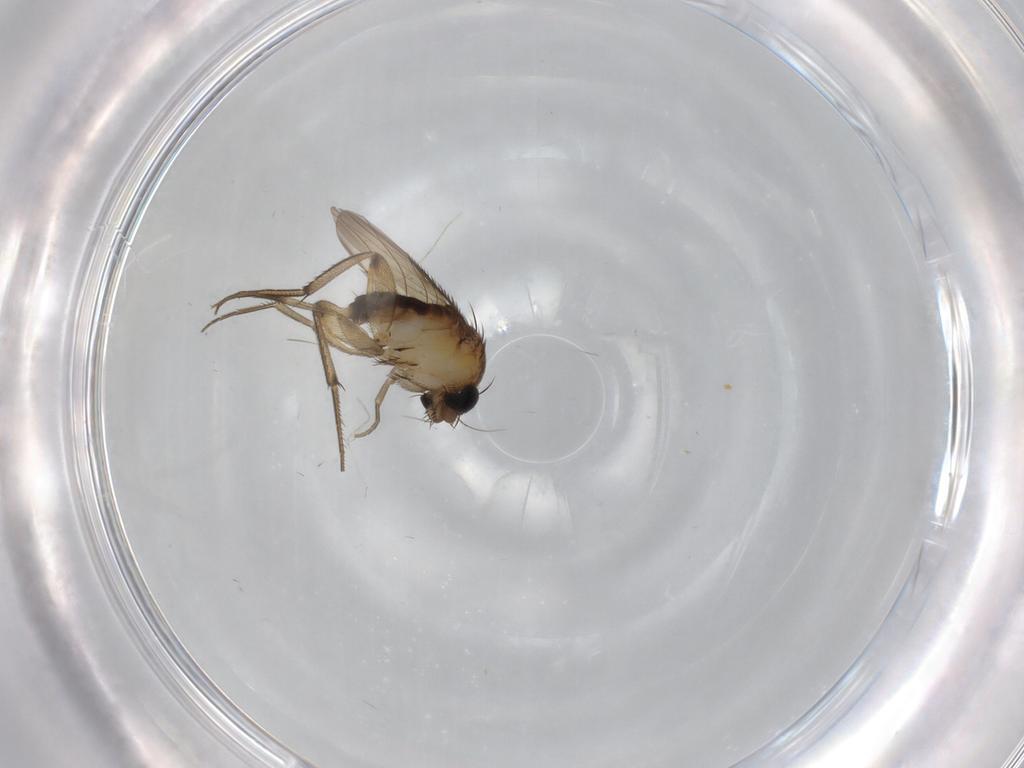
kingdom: Animalia
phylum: Arthropoda
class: Insecta
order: Diptera
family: Phoridae
